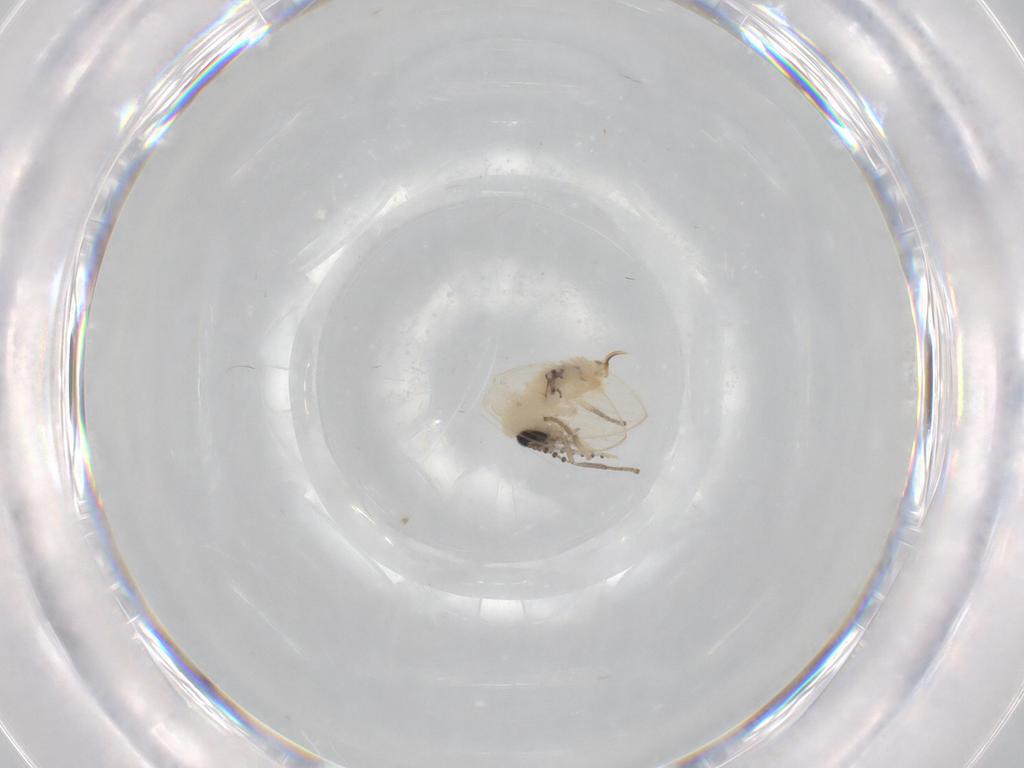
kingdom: Animalia
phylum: Arthropoda
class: Insecta
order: Diptera
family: Psychodidae
